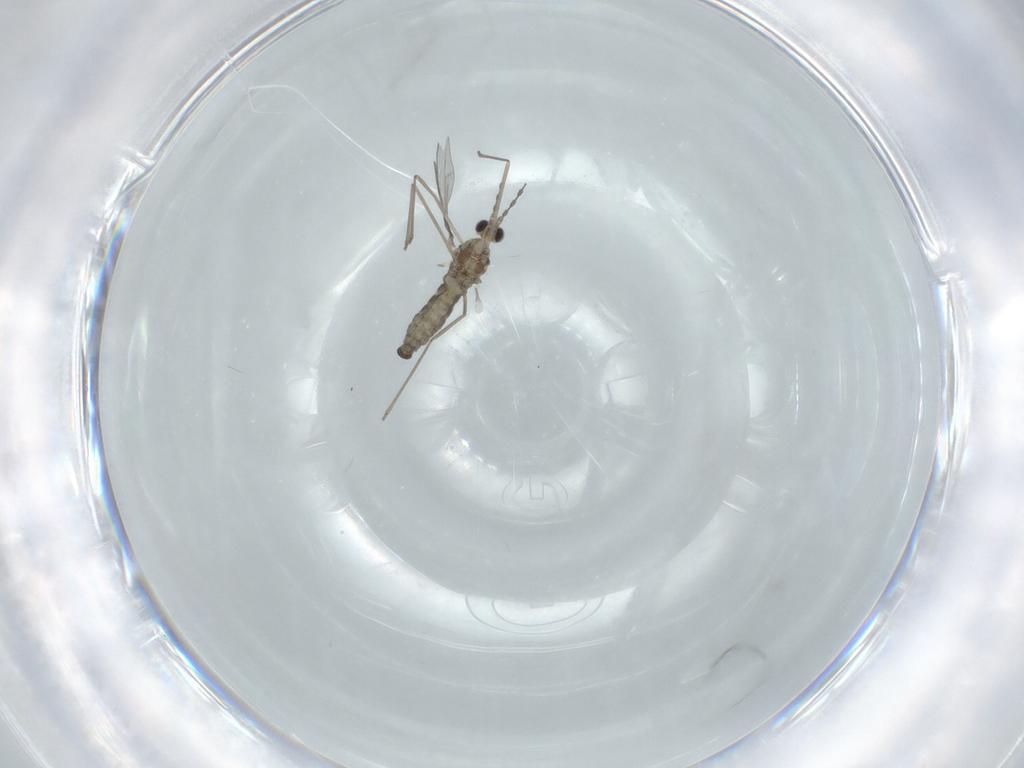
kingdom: Animalia
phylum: Arthropoda
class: Insecta
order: Diptera
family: Cecidomyiidae
